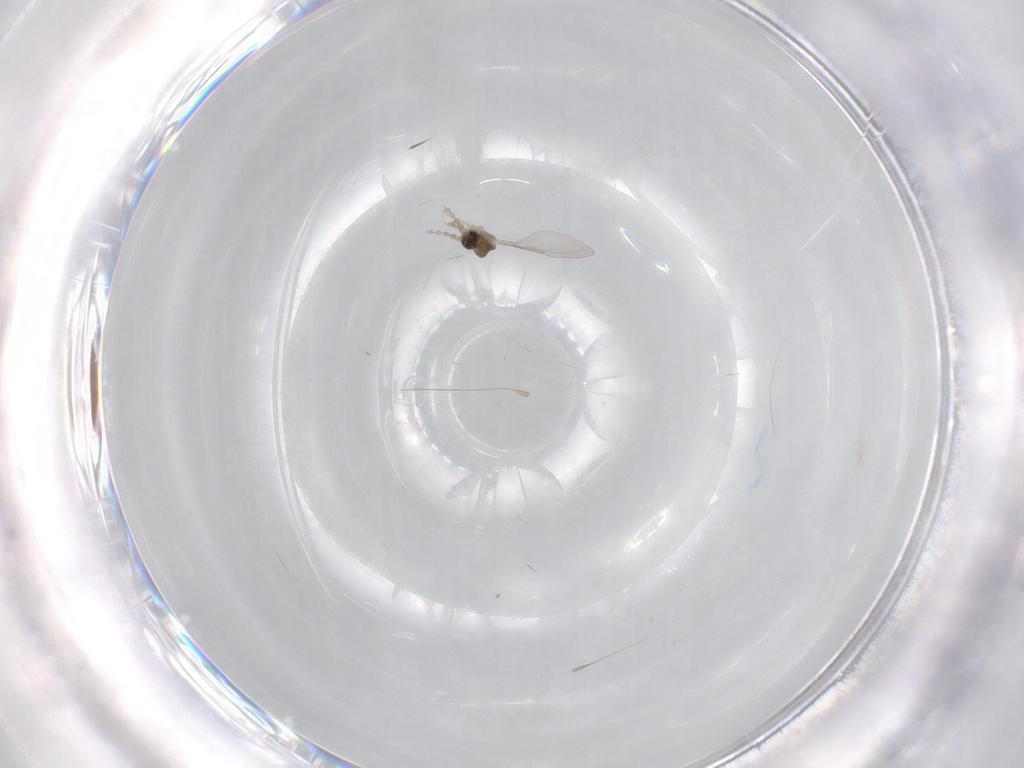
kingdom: Animalia
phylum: Arthropoda
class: Insecta
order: Diptera
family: Cecidomyiidae
